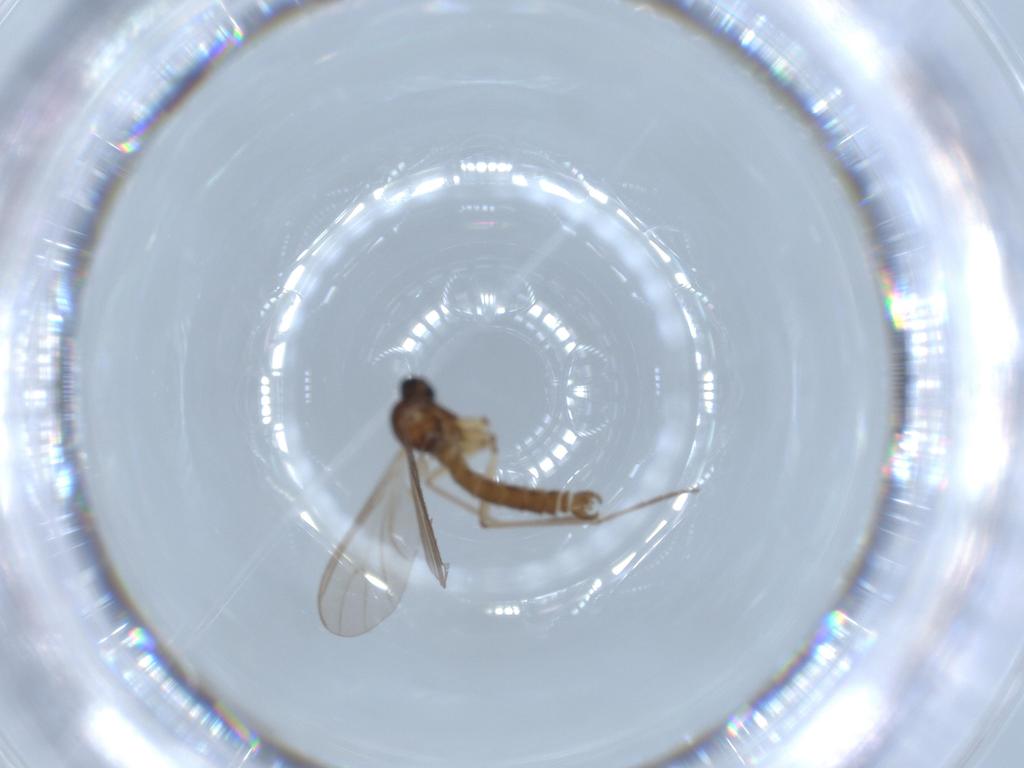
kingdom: Animalia
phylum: Arthropoda
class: Insecta
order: Diptera
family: Sciaridae
